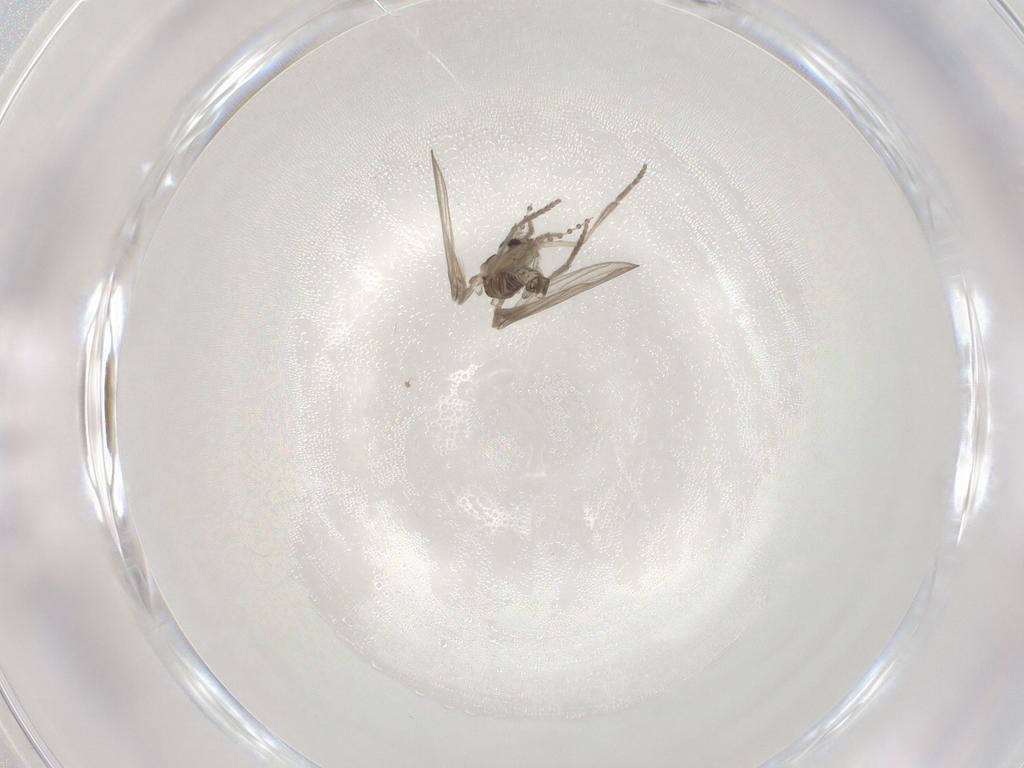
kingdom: Animalia
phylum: Arthropoda
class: Insecta
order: Diptera
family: Psychodidae
